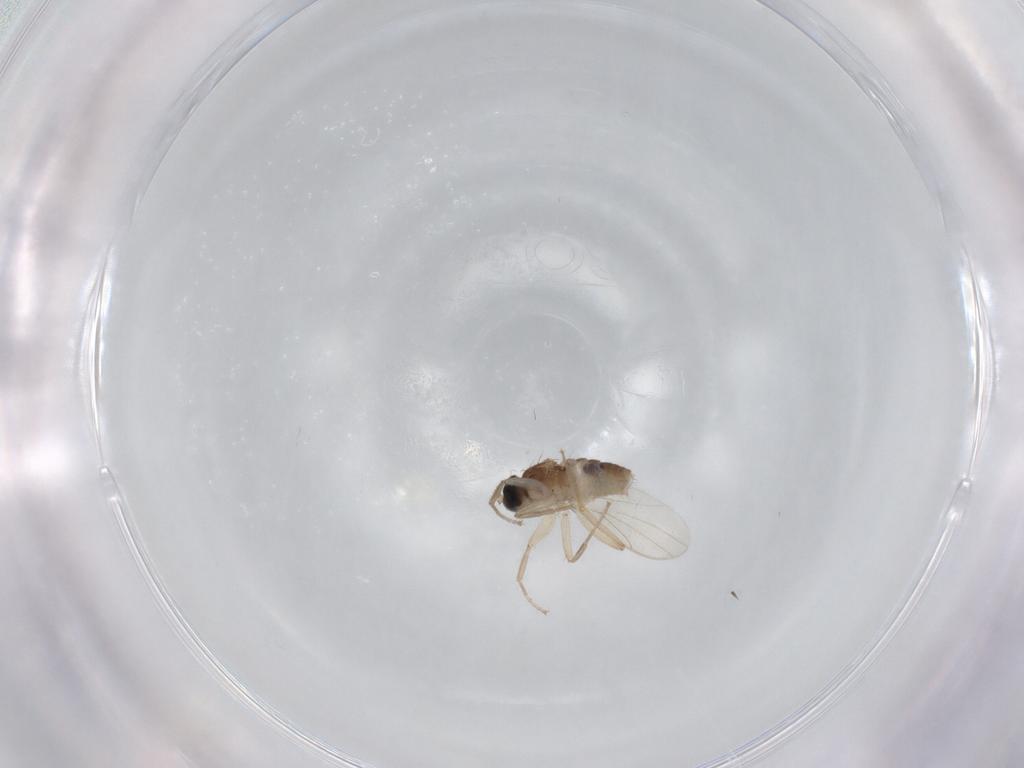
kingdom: Animalia
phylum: Arthropoda
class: Insecta
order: Diptera
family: Hybotidae
